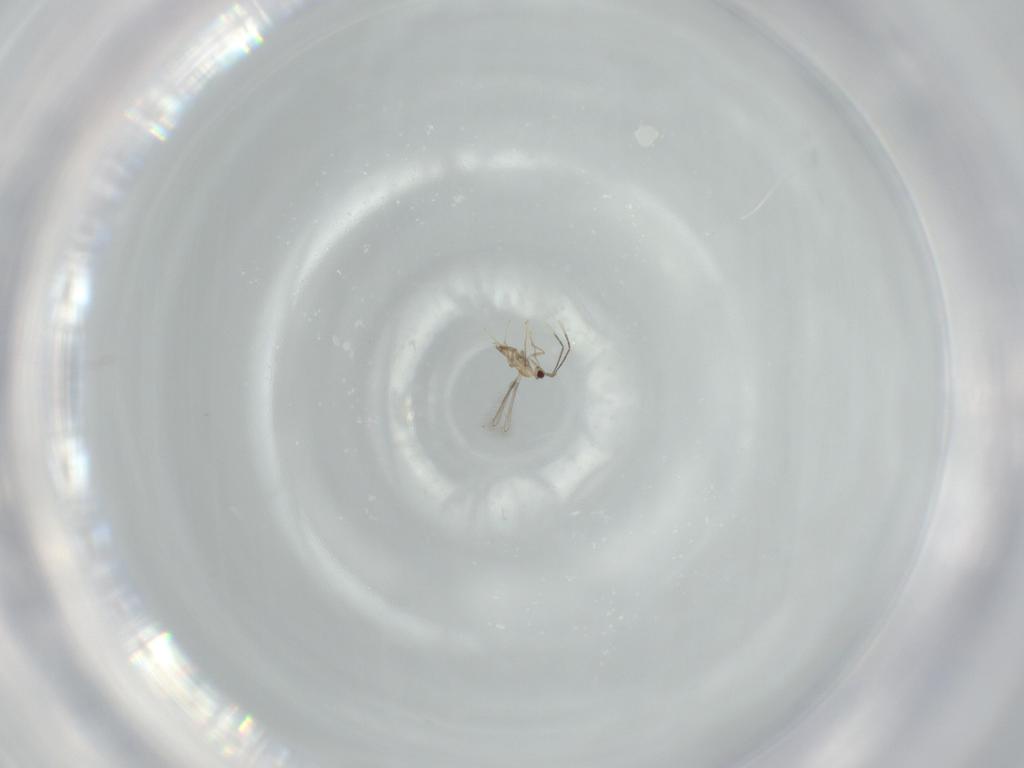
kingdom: Animalia
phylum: Arthropoda
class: Insecta
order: Hymenoptera
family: Mymaridae
